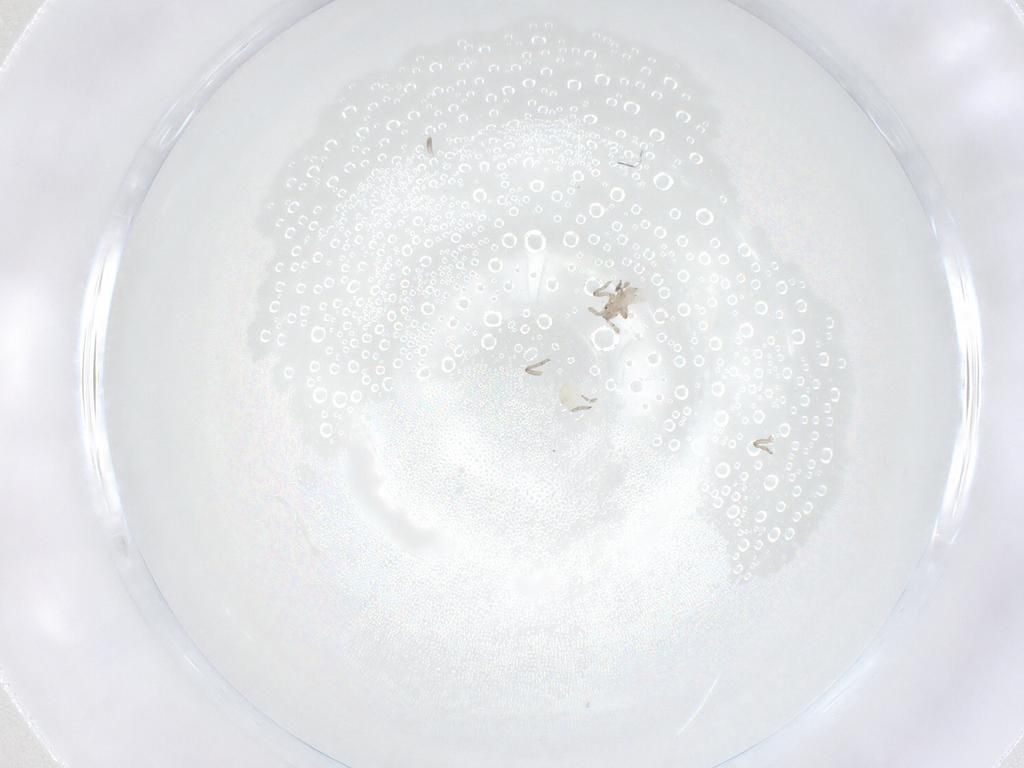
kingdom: Animalia
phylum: Arthropoda
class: Insecta
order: Hemiptera
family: Aphididae
